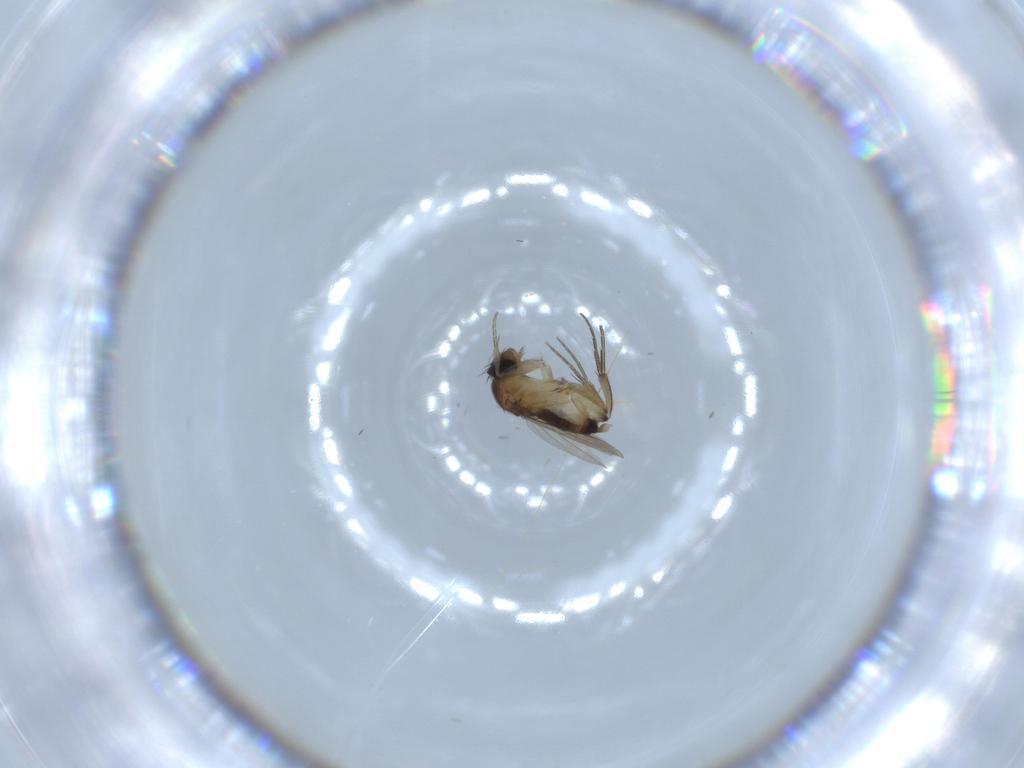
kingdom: Animalia
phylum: Arthropoda
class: Insecta
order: Diptera
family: Phoridae
